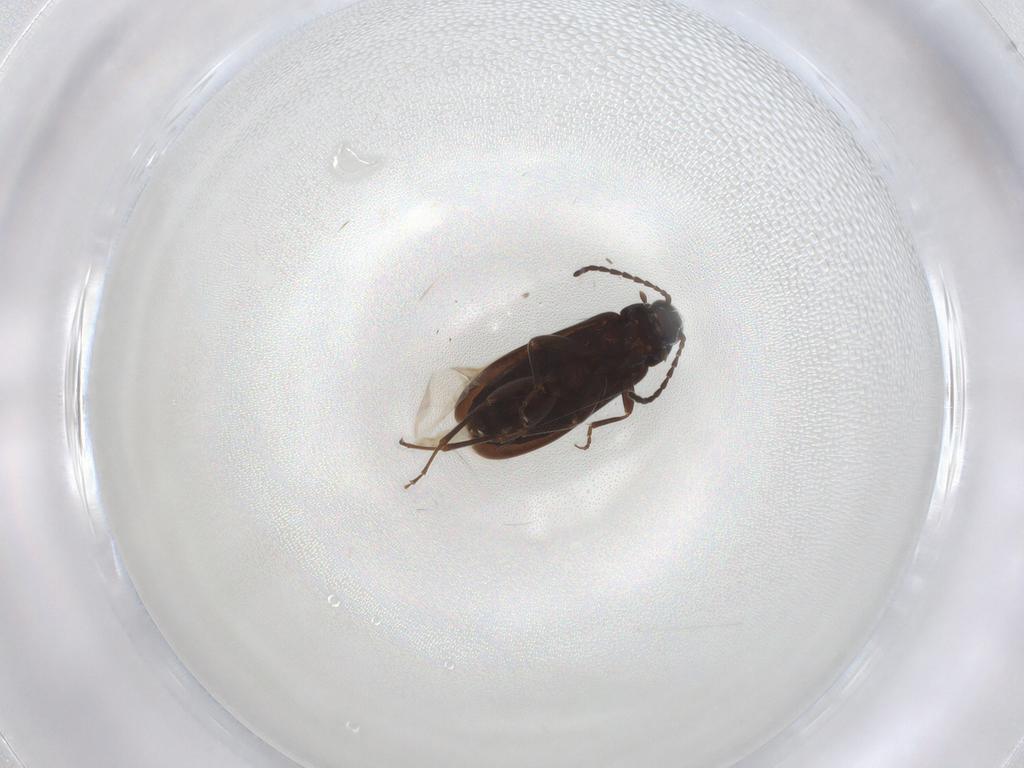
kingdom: Animalia
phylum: Arthropoda
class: Insecta
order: Coleoptera
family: Scraptiidae
